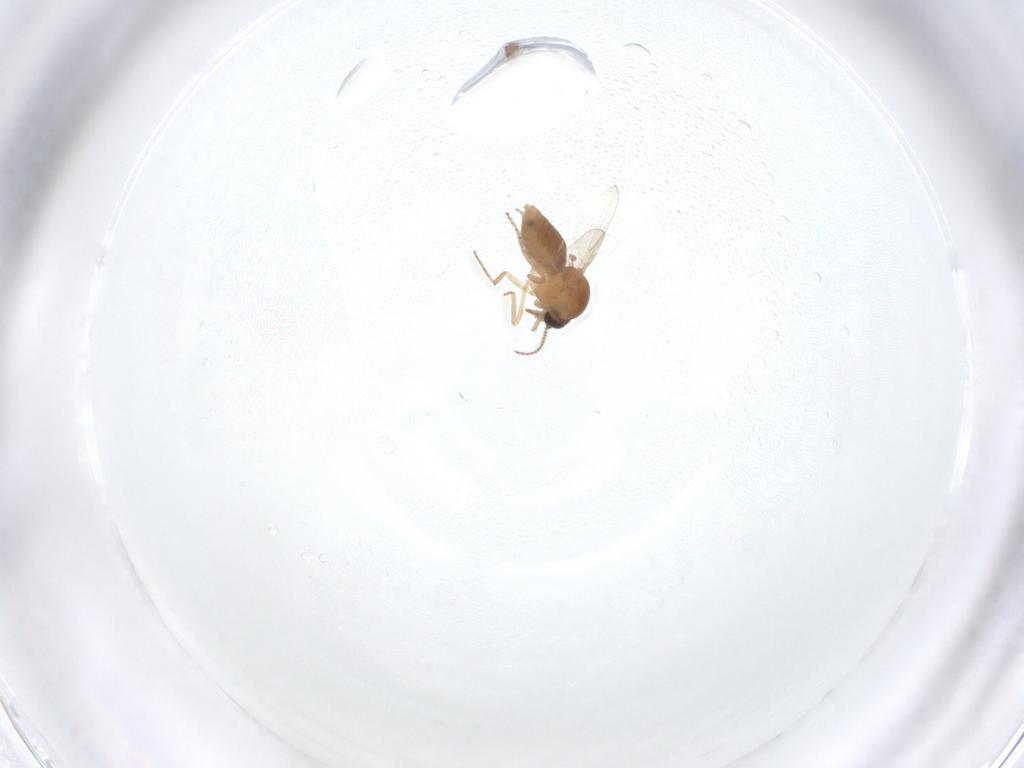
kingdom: Animalia
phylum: Arthropoda
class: Insecta
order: Diptera
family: Ceratopogonidae
